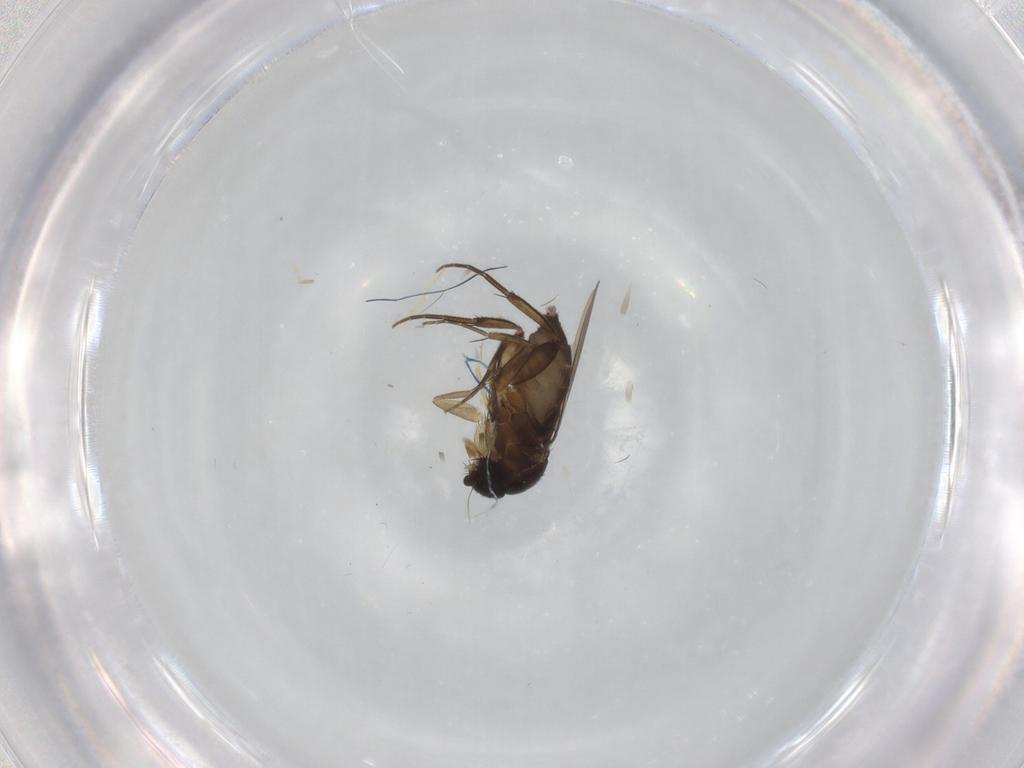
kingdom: Animalia
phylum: Arthropoda
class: Insecta
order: Diptera
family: Phoridae
